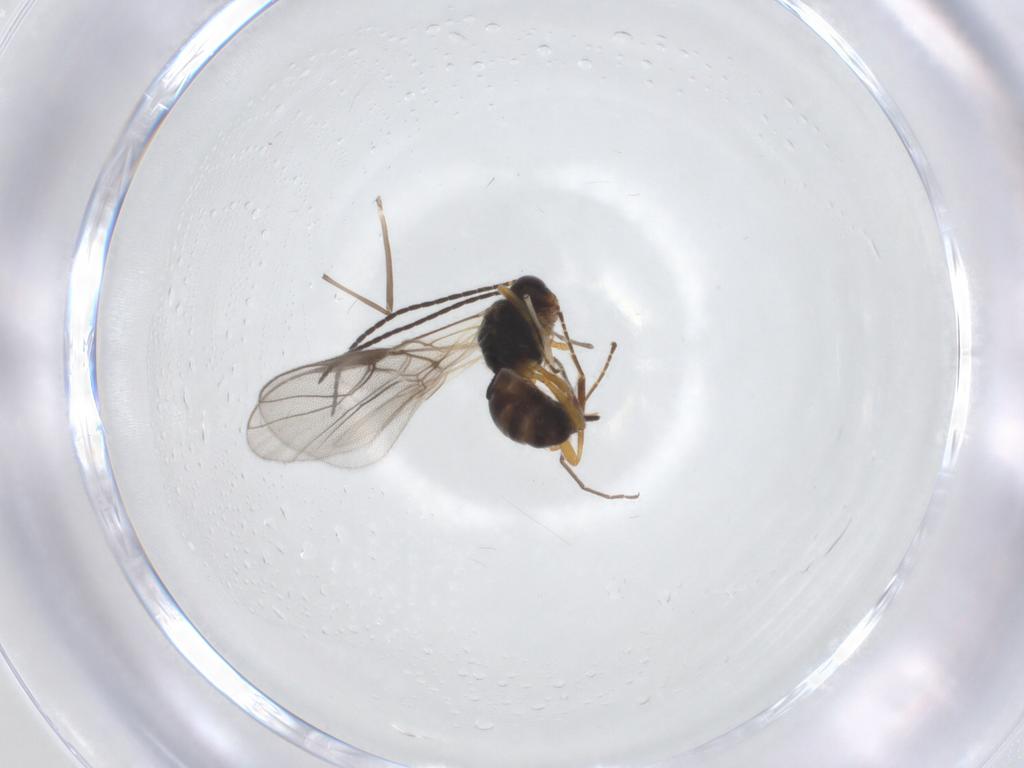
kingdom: Animalia
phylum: Arthropoda
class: Insecta
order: Hymenoptera
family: Braconidae
